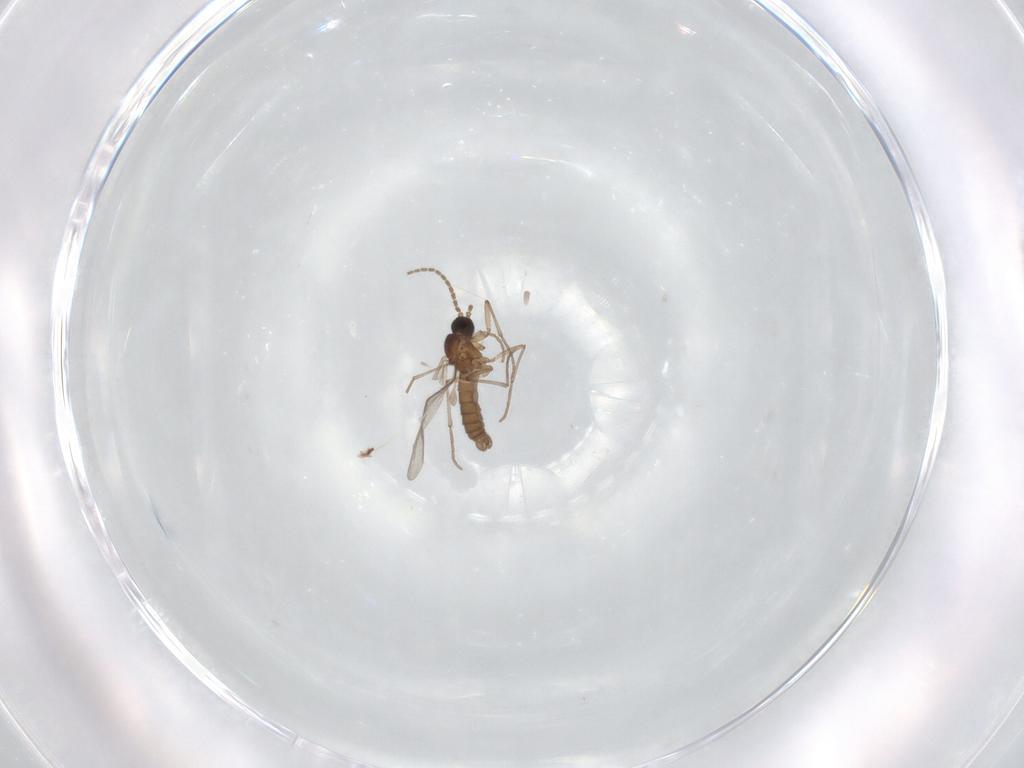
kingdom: Animalia
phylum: Arthropoda
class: Insecta
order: Diptera
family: Sciaridae
